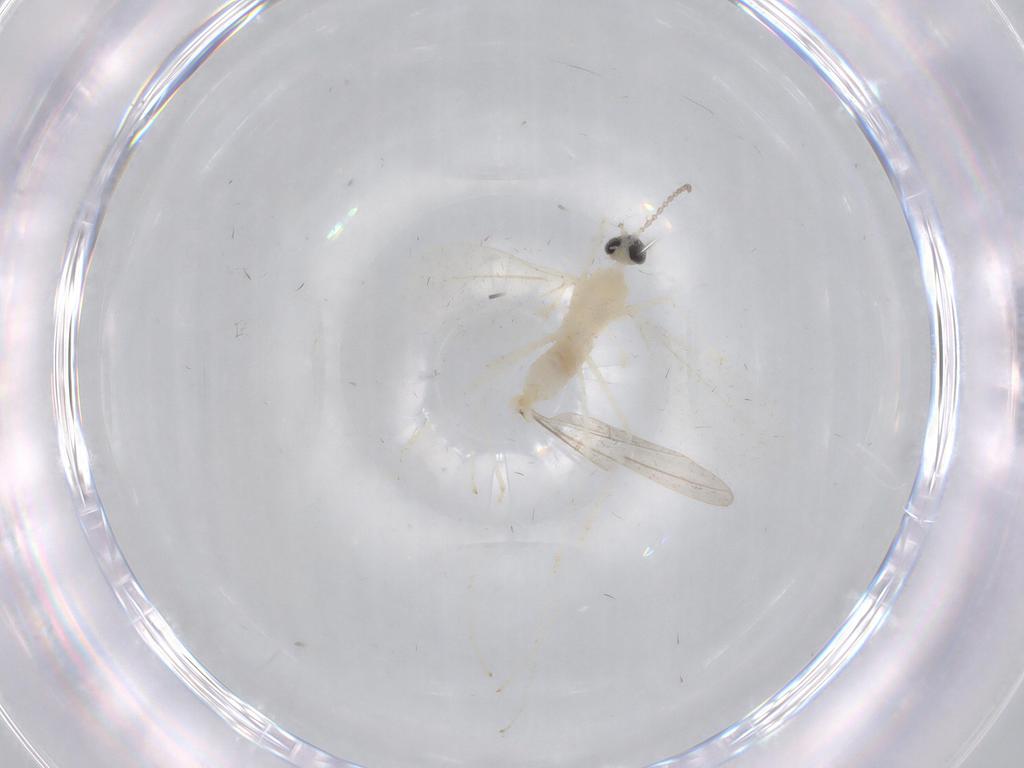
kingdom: Animalia
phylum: Arthropoda
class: Insecta
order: Diptera
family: Cecidomyiidae
